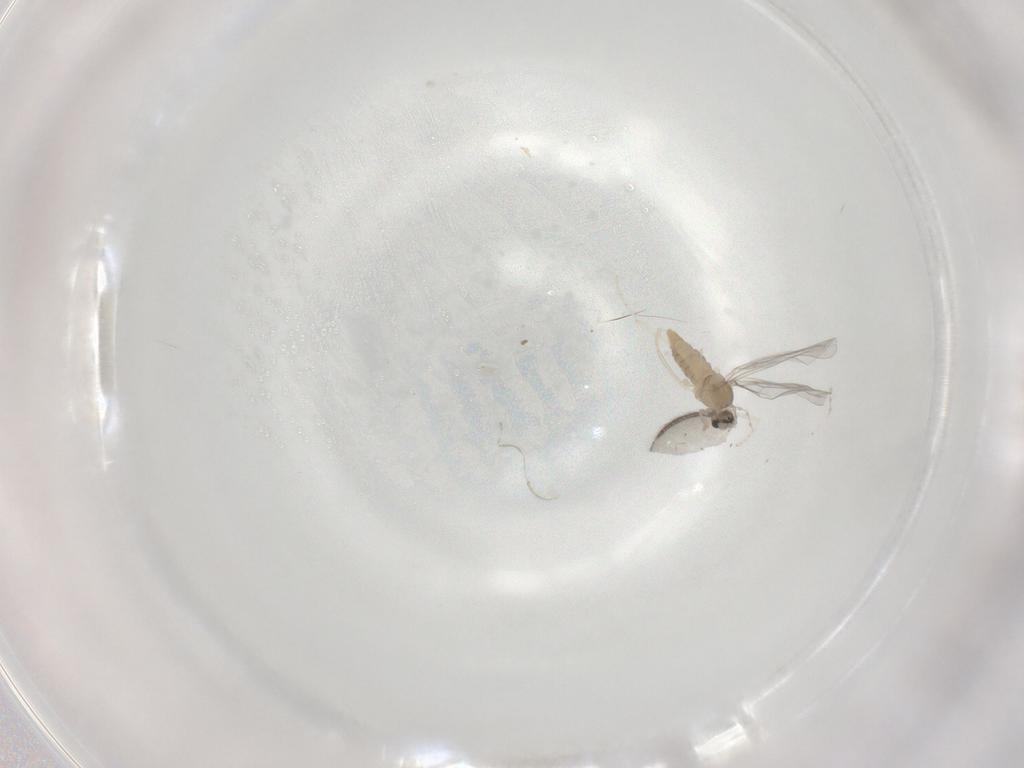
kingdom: Animalia
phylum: Arthropoda
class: Insecta
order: Diptera
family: Cecidomyiidae
